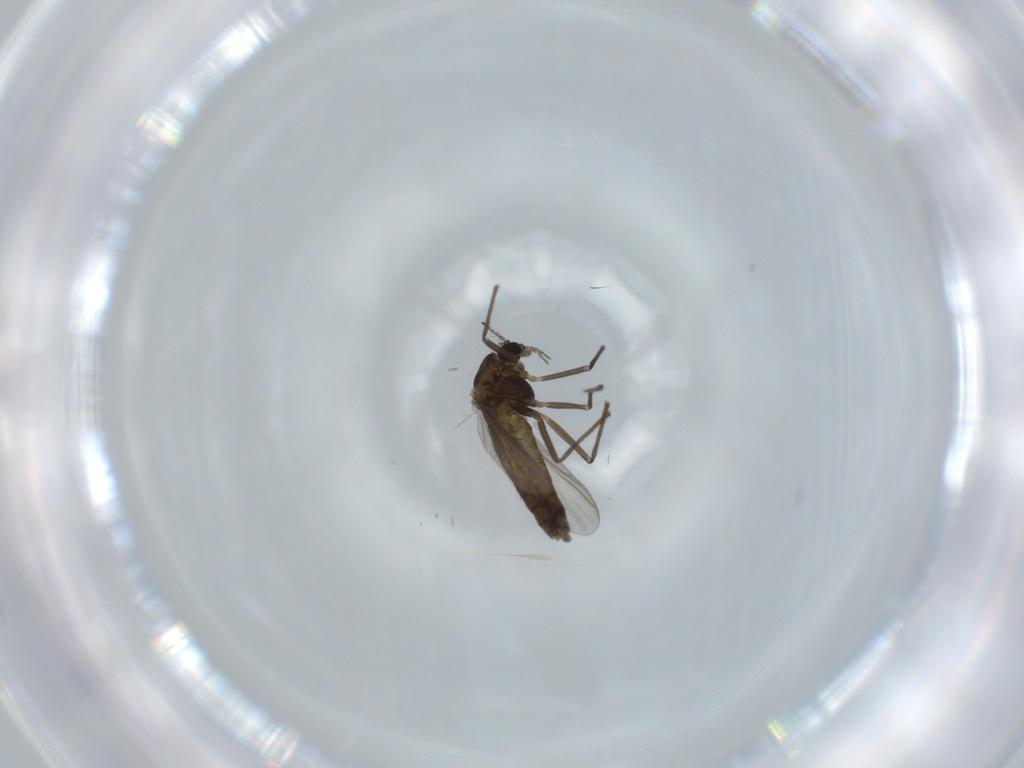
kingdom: Animalia
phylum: Arthropoda
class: Insecta
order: Diptera
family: Chironomidae
